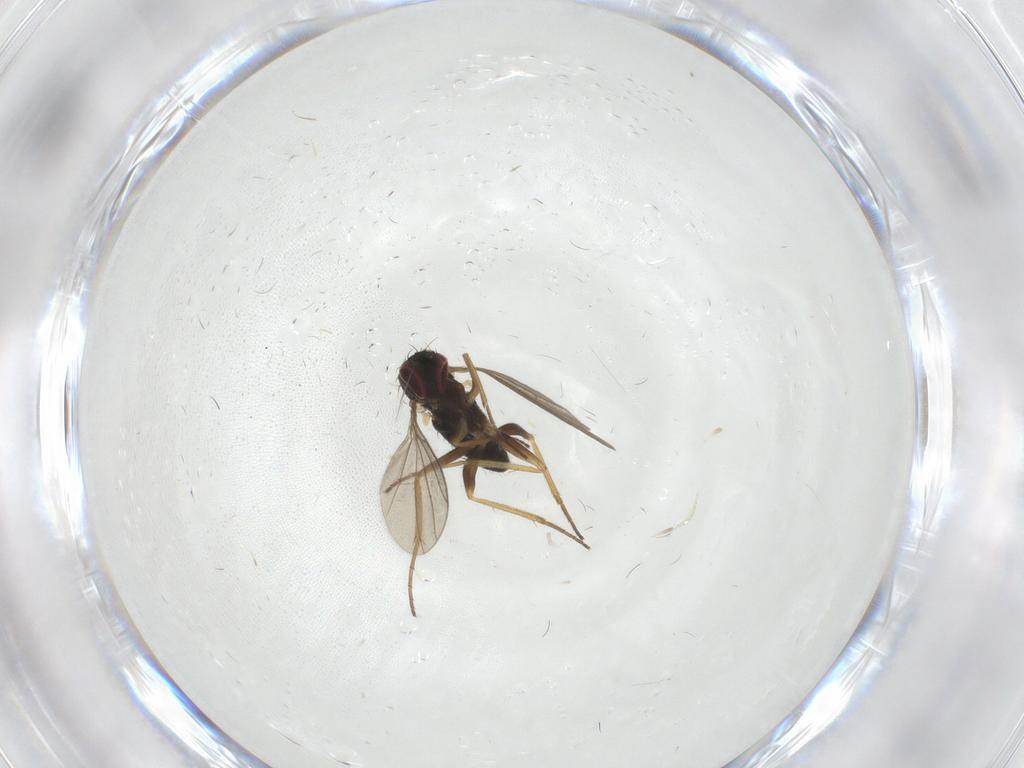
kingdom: Animalia
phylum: Arthropoda
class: Insecta
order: Diptera
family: Dolichopodidae
